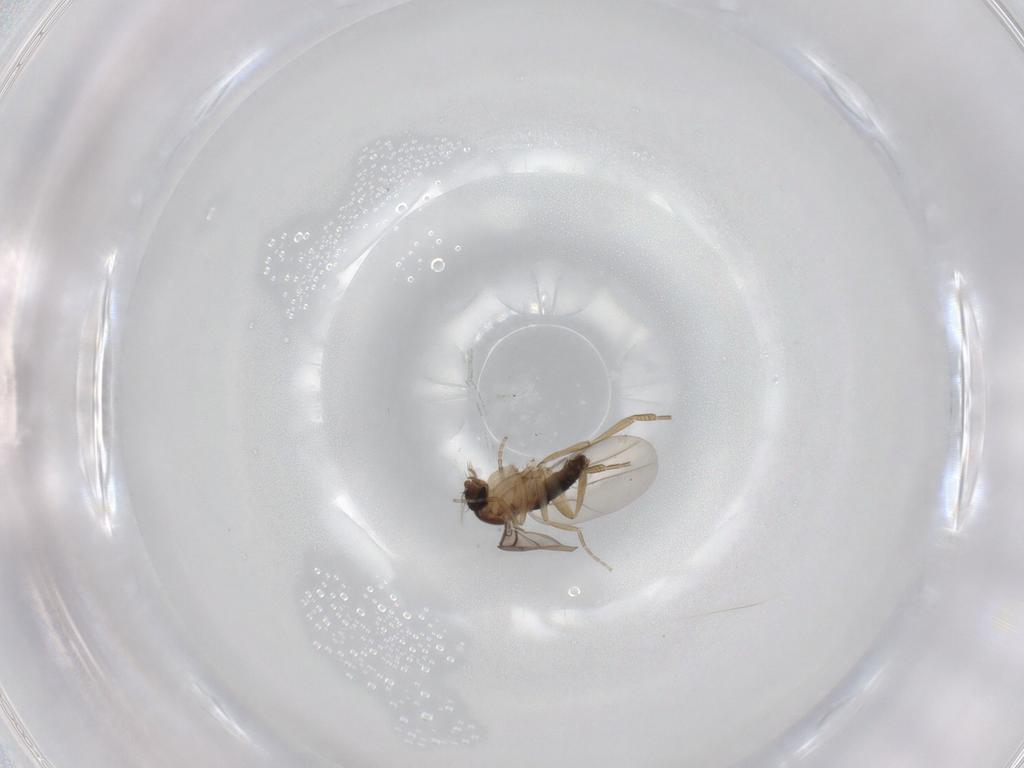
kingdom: Animalia
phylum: Arthropoda
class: Insecta
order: Diptera
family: Phoridae
